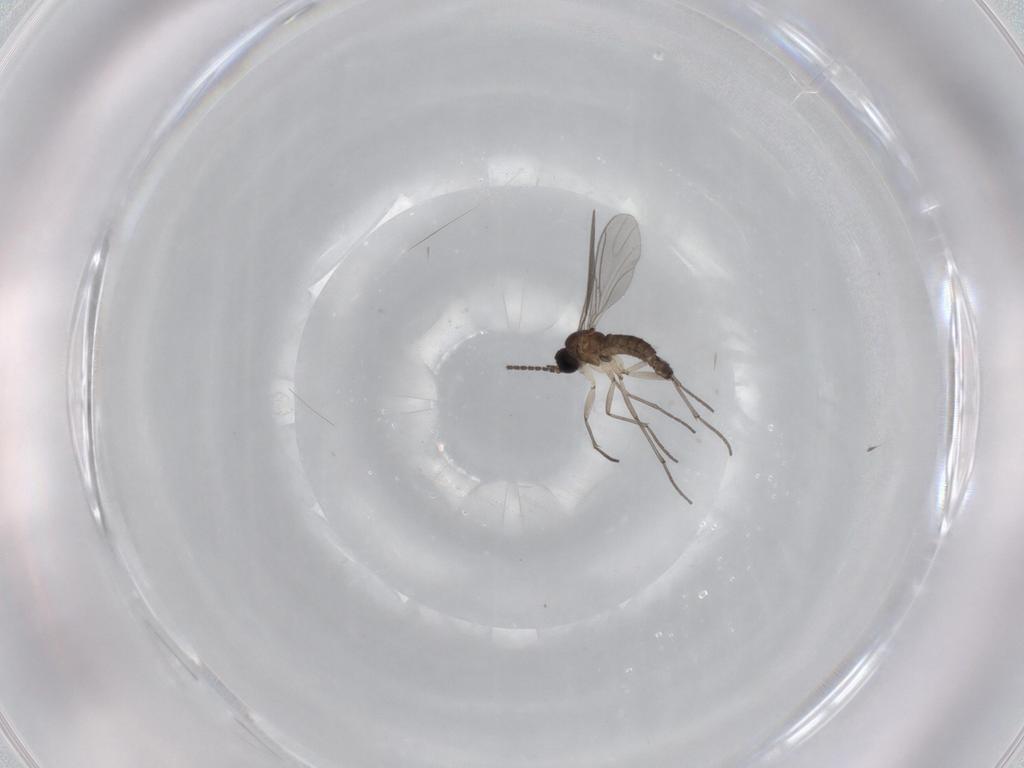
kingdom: Animalia
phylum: Arthropoda
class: Insecta
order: Diptera
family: Sciaridae
